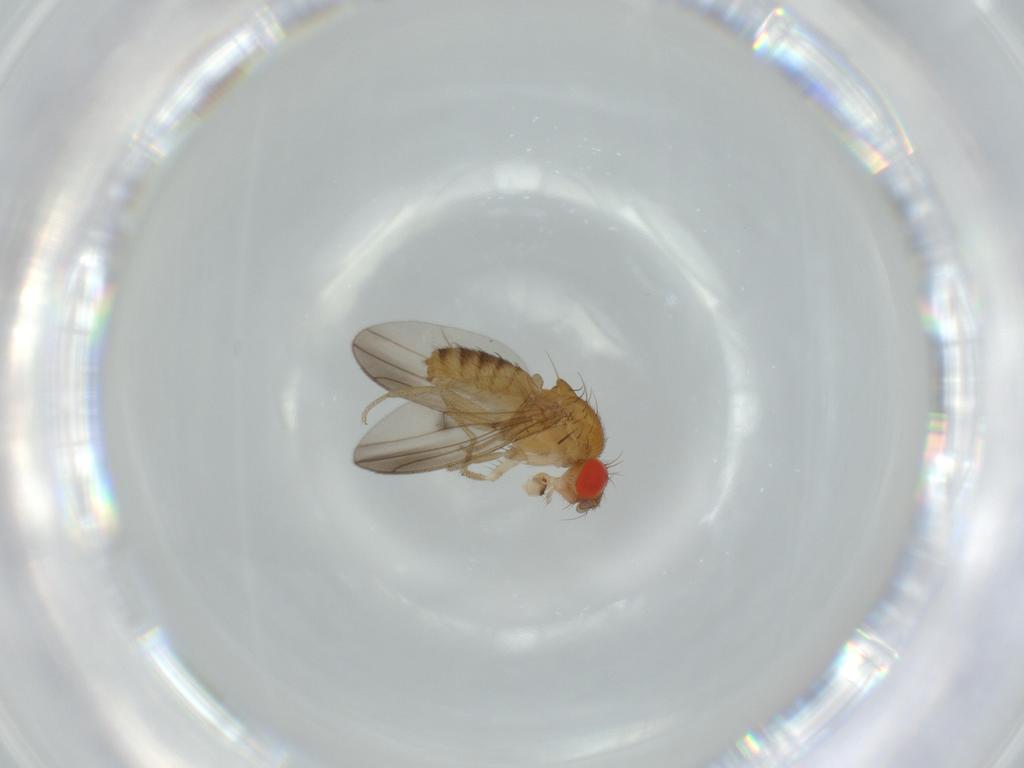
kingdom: Animalia
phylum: Arthropoda
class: Insecta
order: Diptera
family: Drosophilidae
